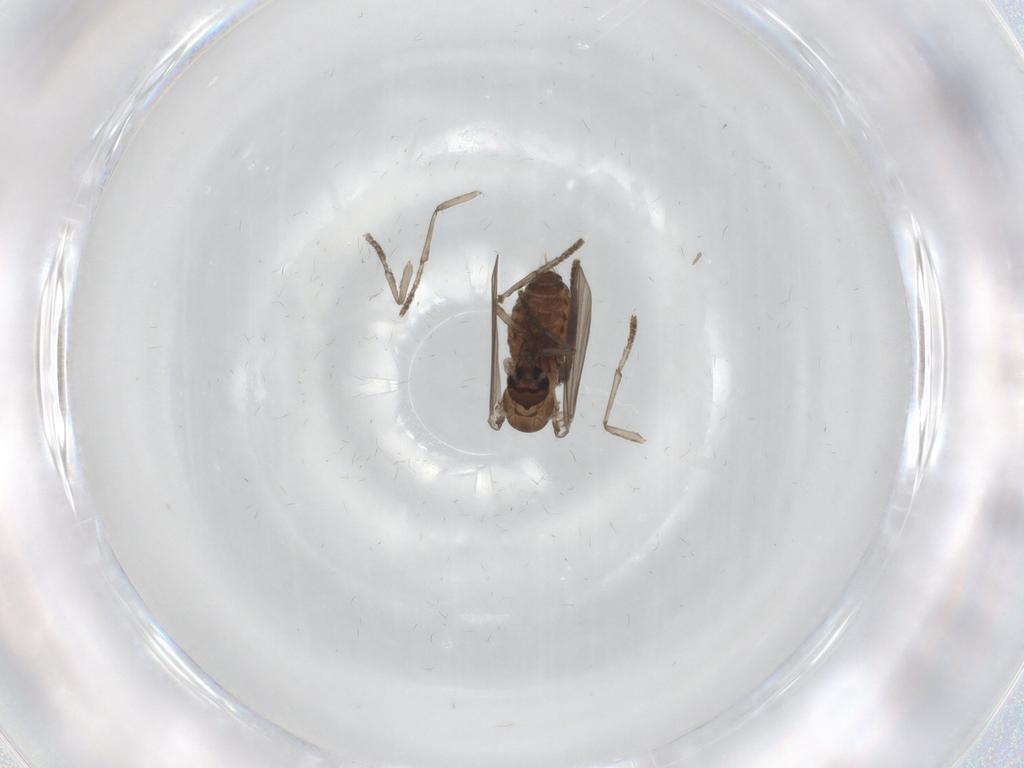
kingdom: Animalia
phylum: Arthropoda
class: Insecta
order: Diptera
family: Psychodidae
